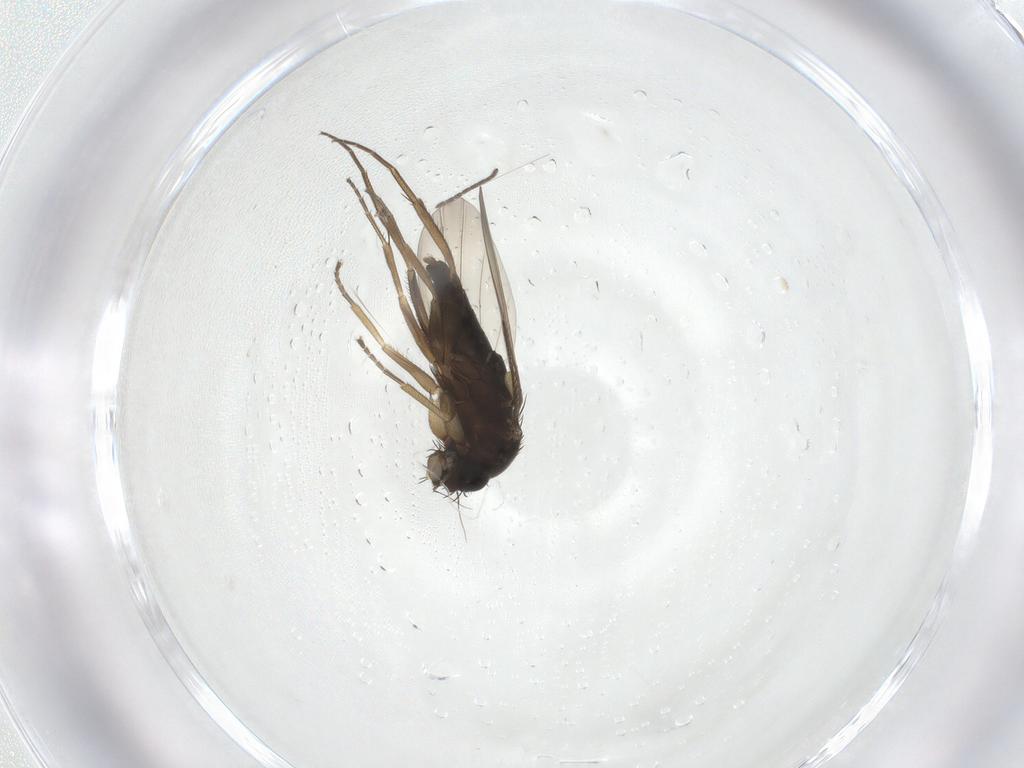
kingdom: Animalia
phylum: Arthropoda
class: Insecta
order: Diptera
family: Phoridae
